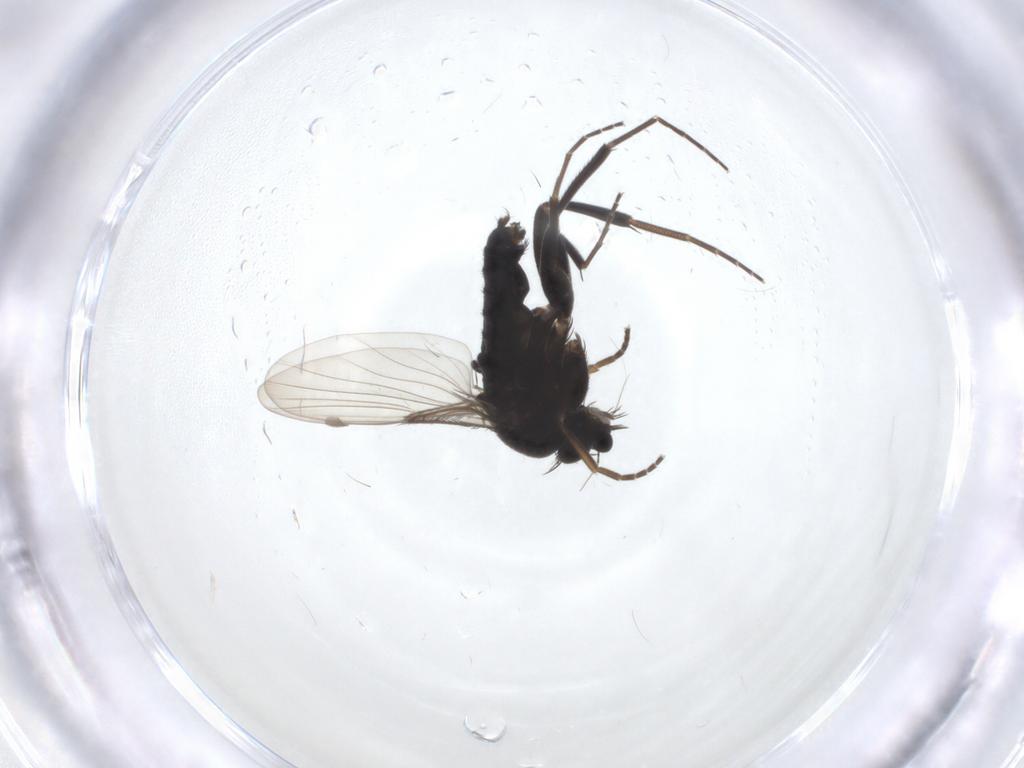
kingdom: Animalia
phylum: Arthropoda
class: Insecta
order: Diptera
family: Phoridae
